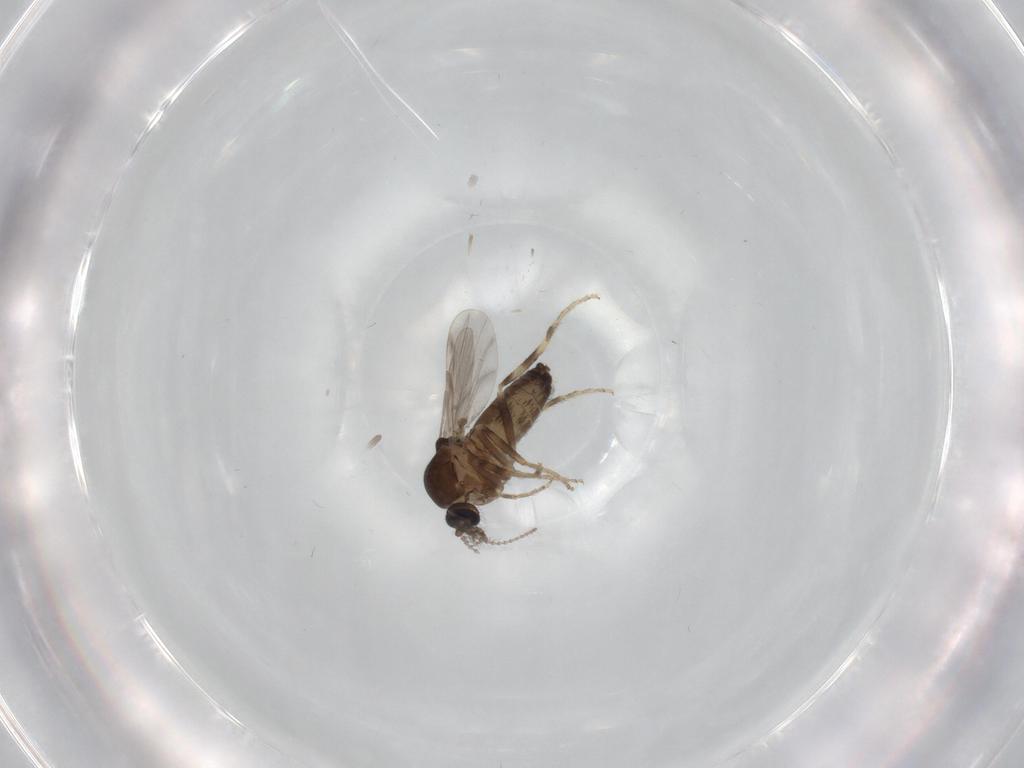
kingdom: Animalia
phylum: Arthropoda
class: Insecta
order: Diptera
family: Ceratopogonidae
